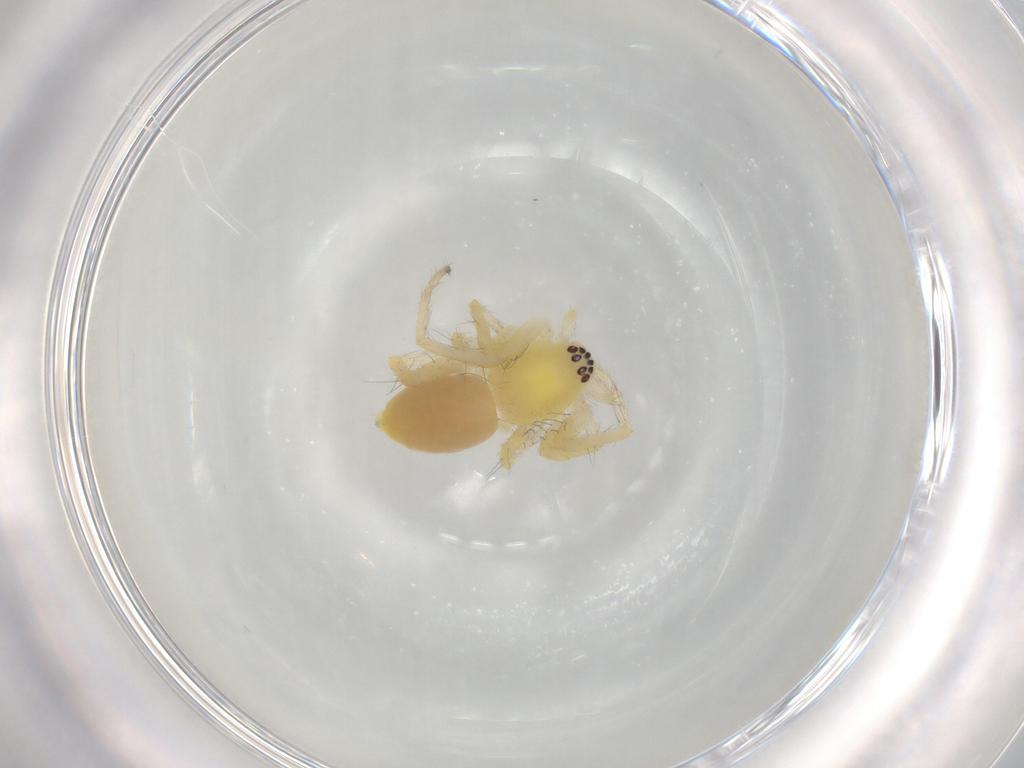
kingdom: Animalia
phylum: Arthropoda
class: Arachnida
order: Araneae
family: Anyphaenidae
